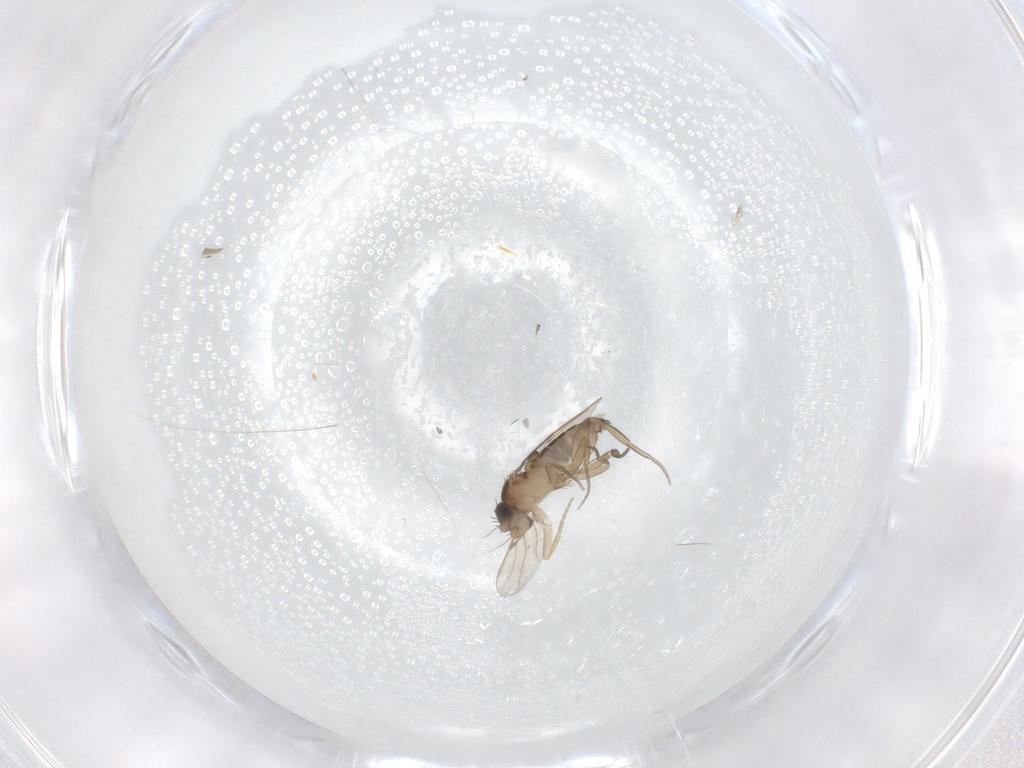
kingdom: Animalia
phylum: Arthropoda
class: Insecta
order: Diptera
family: Phoridae
